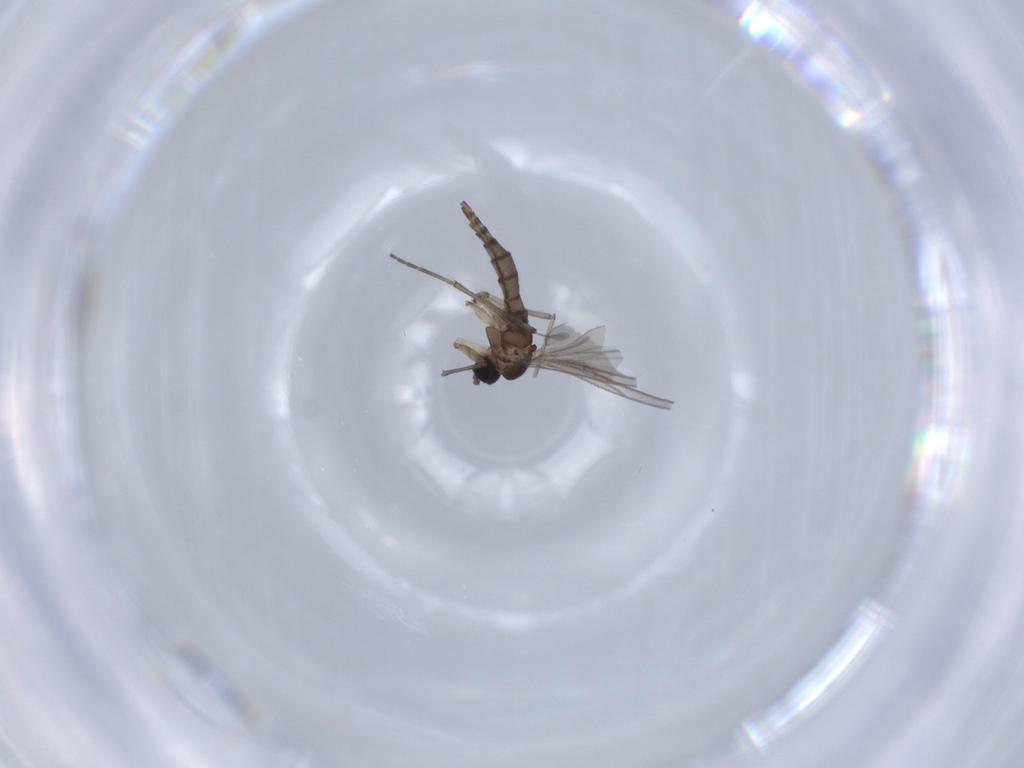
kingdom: Animalia
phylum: Arthropoda
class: Insecta
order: Diptera
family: Sciaridae
